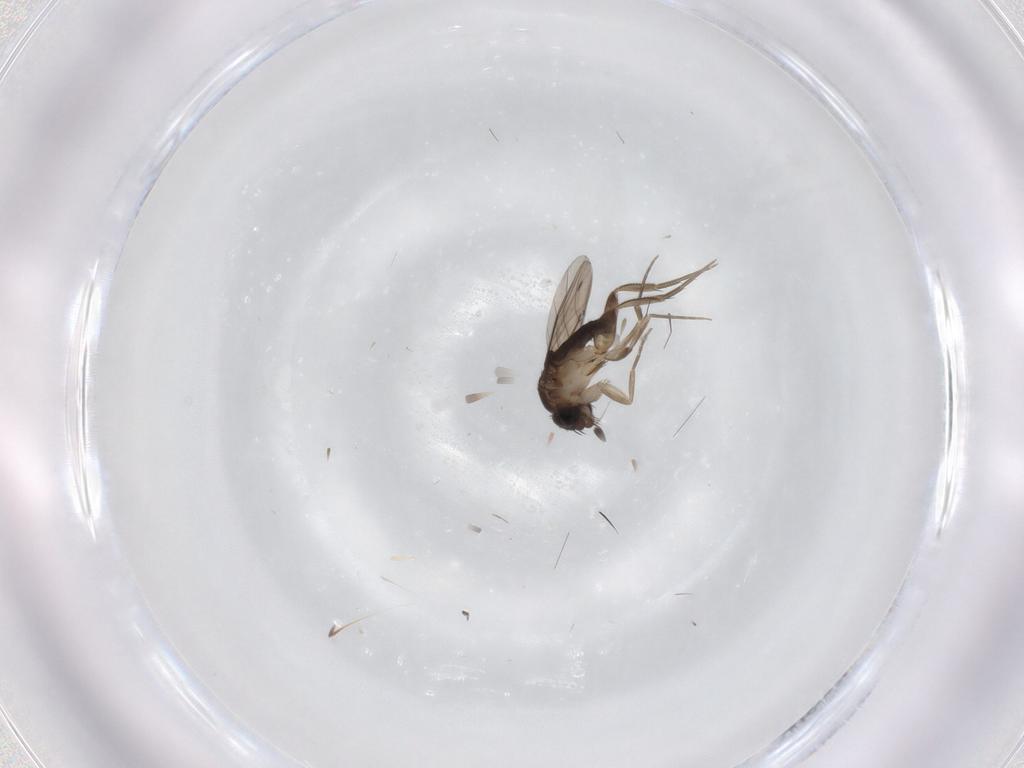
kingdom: Animalia
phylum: Arthropoda
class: Insecta
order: Diptera
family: Phoridae
